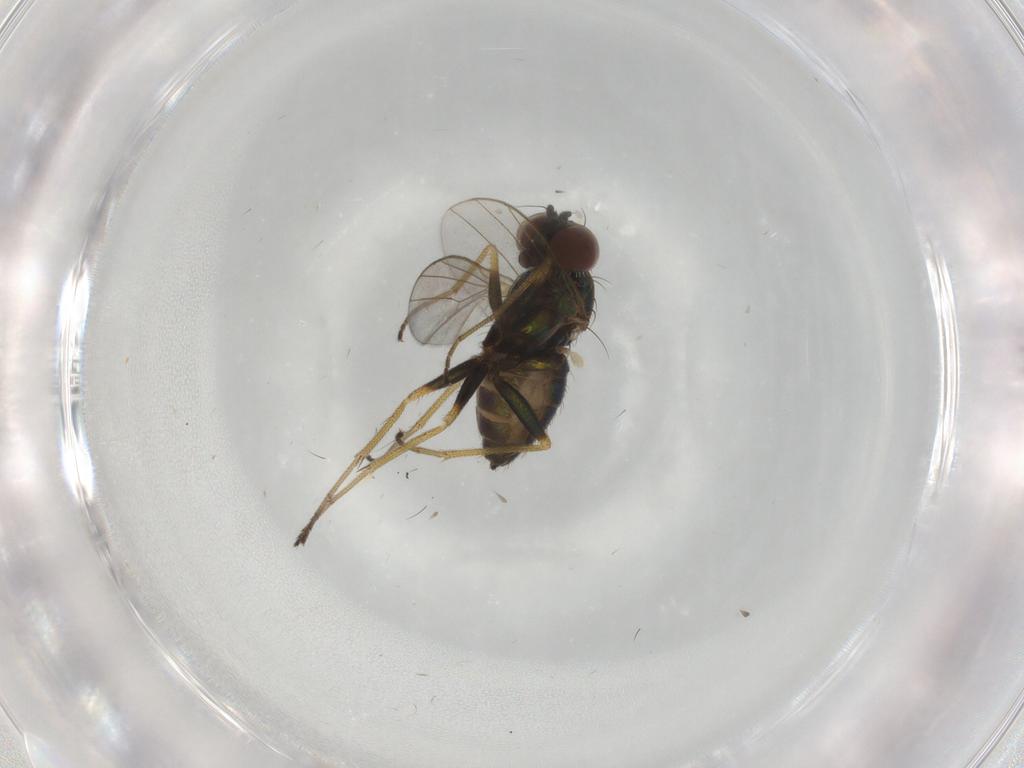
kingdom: Animalia
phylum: Arthropoda
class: Insecta
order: Diptera
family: Dolichopodidae
